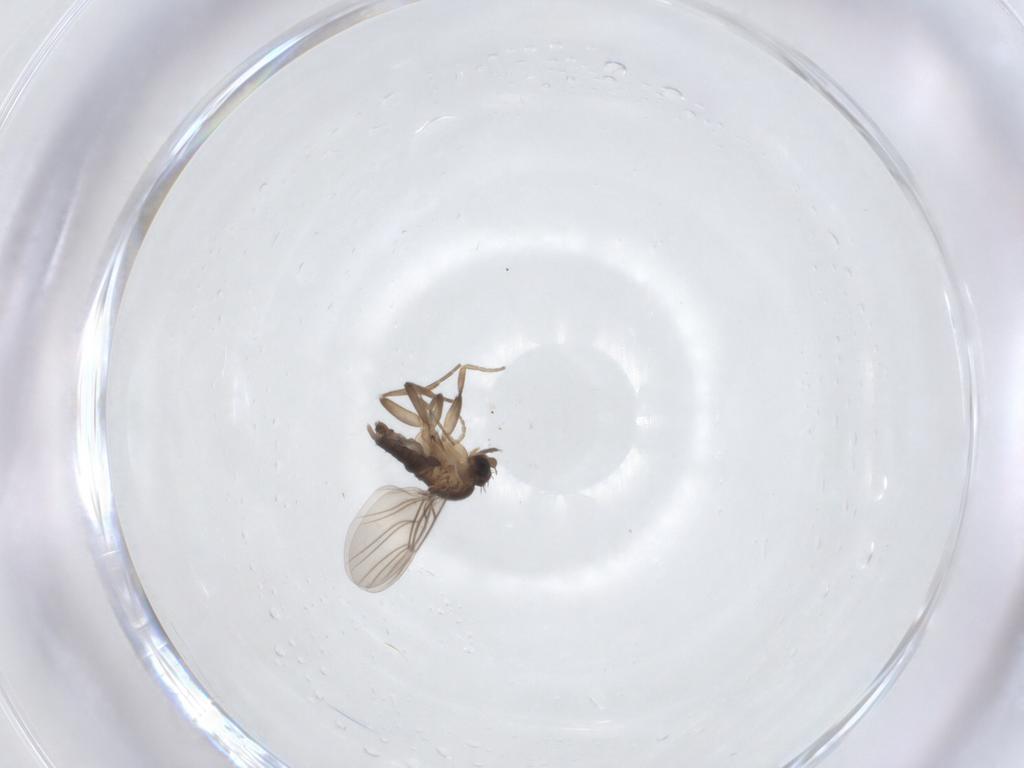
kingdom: Animalia
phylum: Arthropoda
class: Insecta
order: Diptera
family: Phoridae
